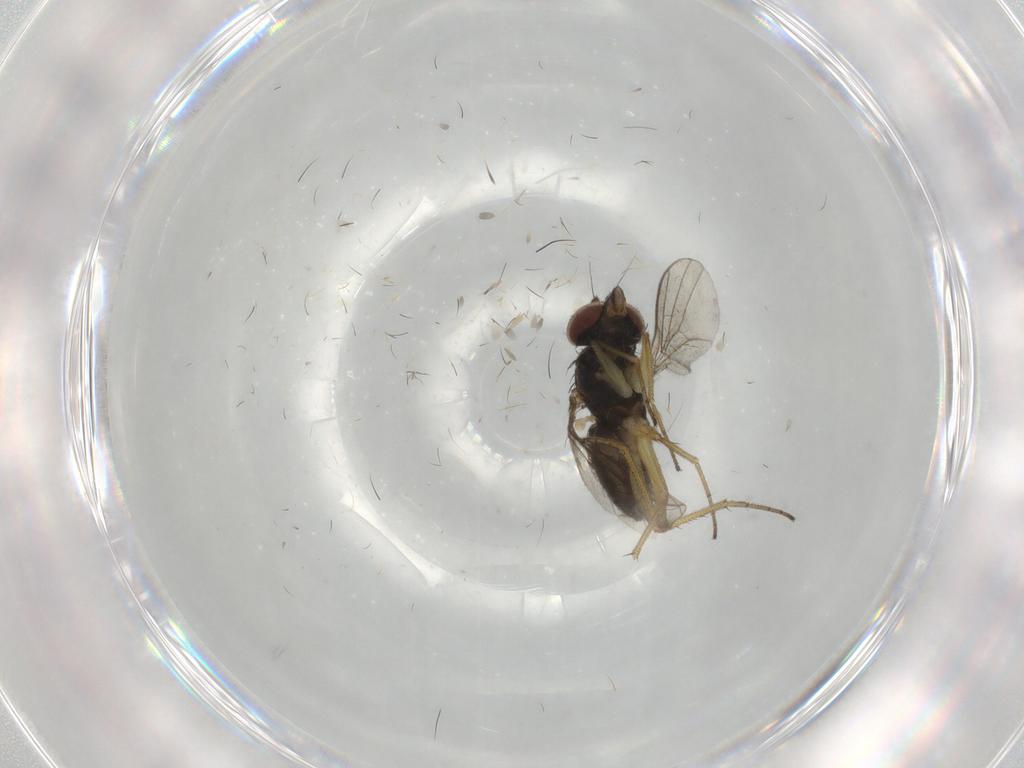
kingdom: Animalia
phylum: Arthropoda
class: Insecta
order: Diptera
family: Dolichopodidae
